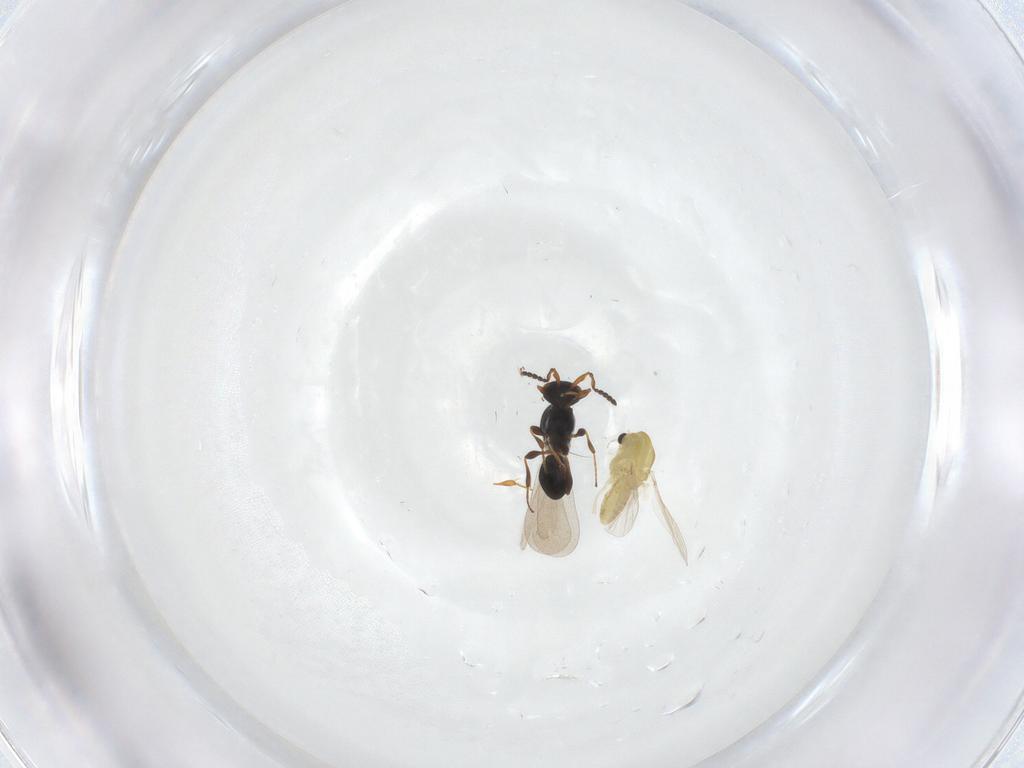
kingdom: Animalia
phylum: Arthropoda
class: Insecta
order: Diptera
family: Chironomidae
